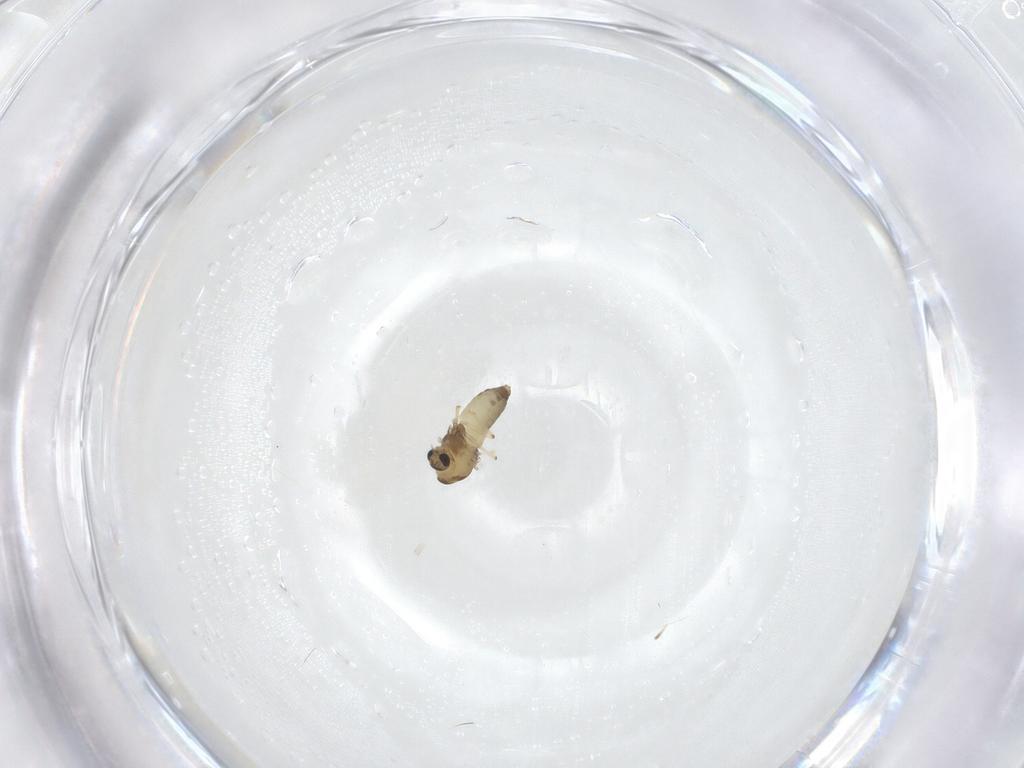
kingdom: Animalia
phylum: Arthropoda
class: Insecta
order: Diptera
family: Chironomidae
